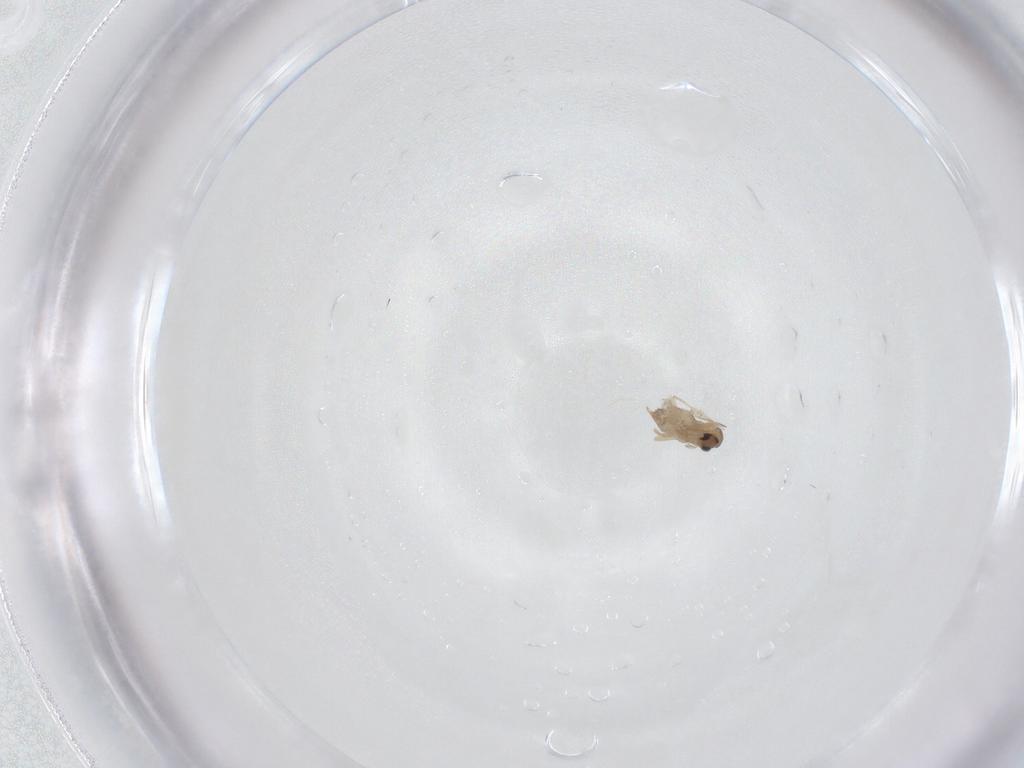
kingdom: Animalia
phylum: Arthropoda
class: Insecta
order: Diptera
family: Cecidomyiidae
